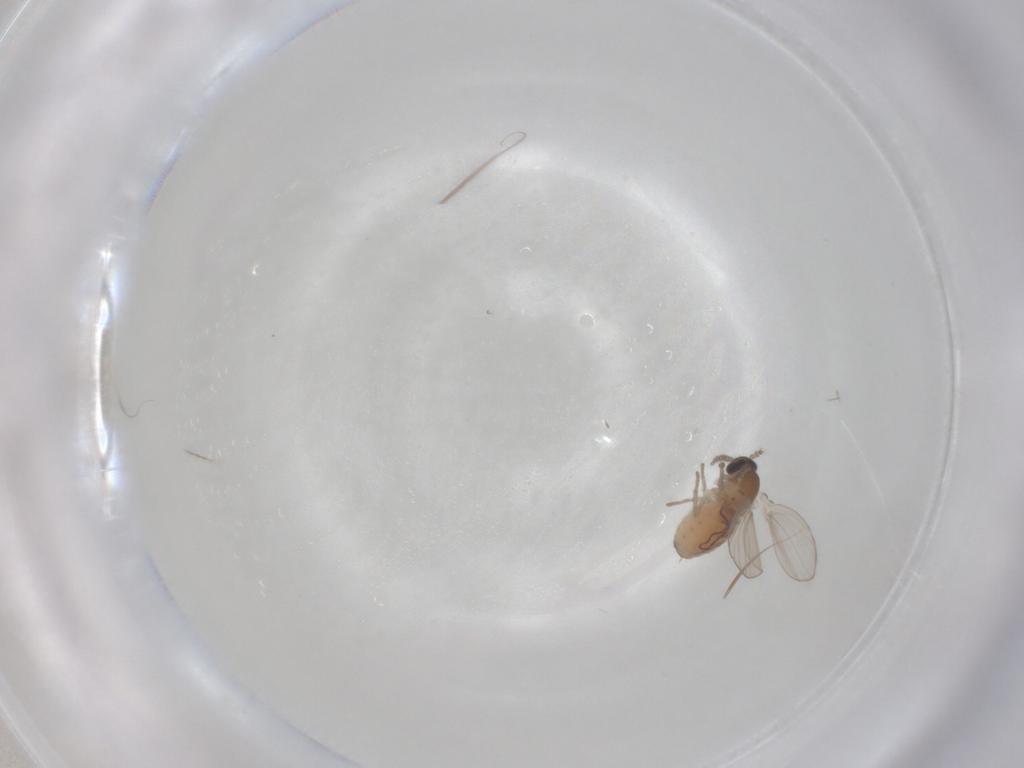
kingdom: Animalia
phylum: Arthropoda
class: Insecta
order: Diptera
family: Psychodidae
